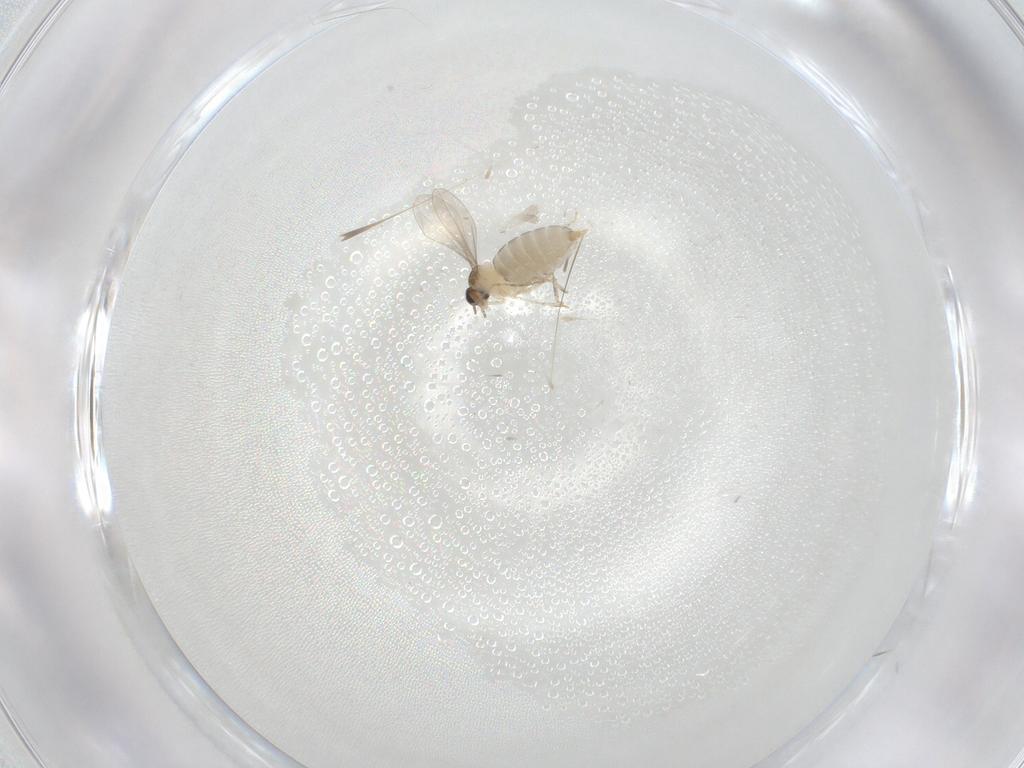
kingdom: Animalia
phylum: Arthropoda
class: Insecta
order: Diptera
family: Cecidomyiidae
